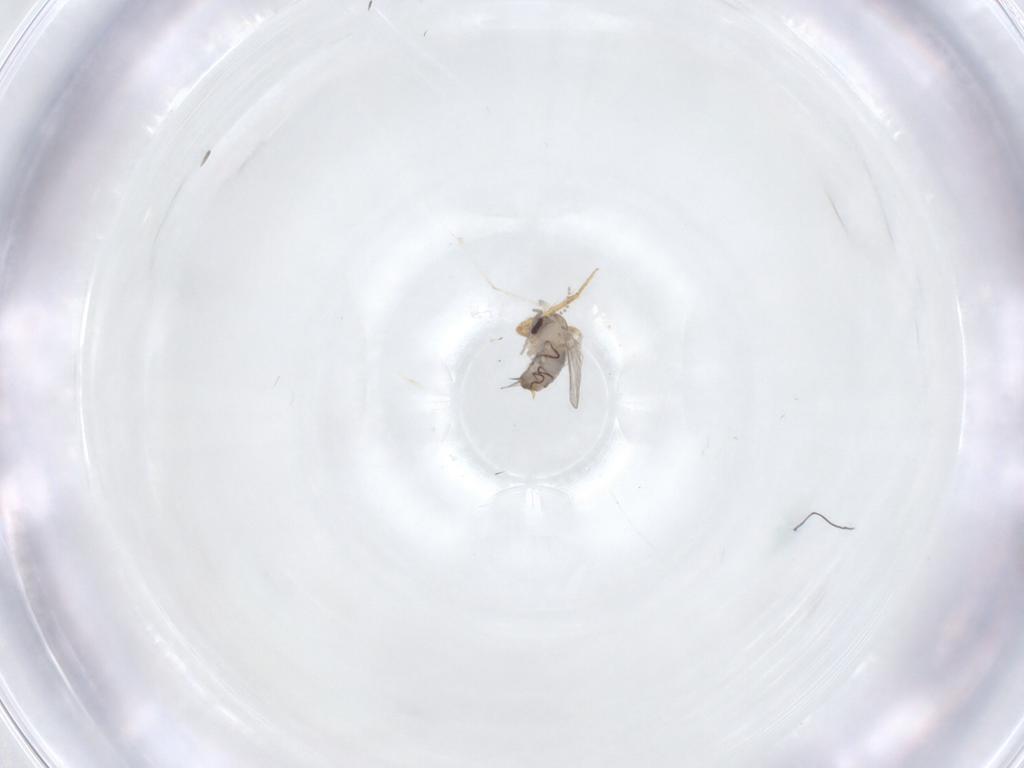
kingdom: Animalia
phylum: Arthropoda
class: Insecta
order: Diptera
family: Psychodidae
